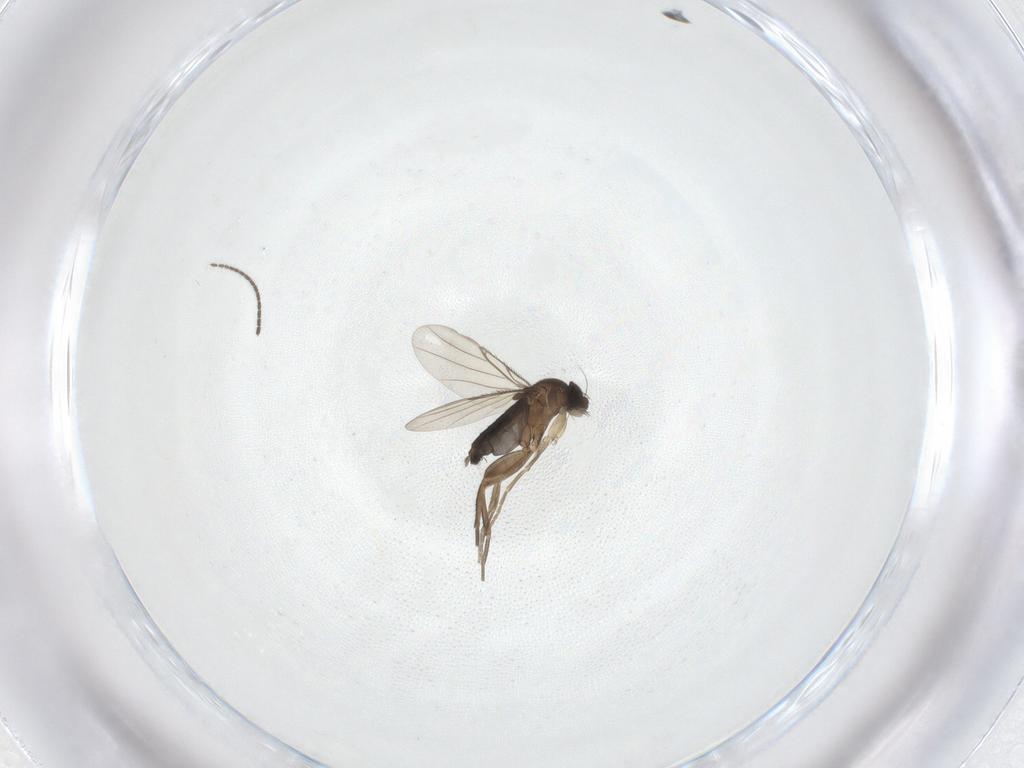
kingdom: Animalia
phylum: Arthropoda
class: Insecta
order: Diptera
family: Phoridae
